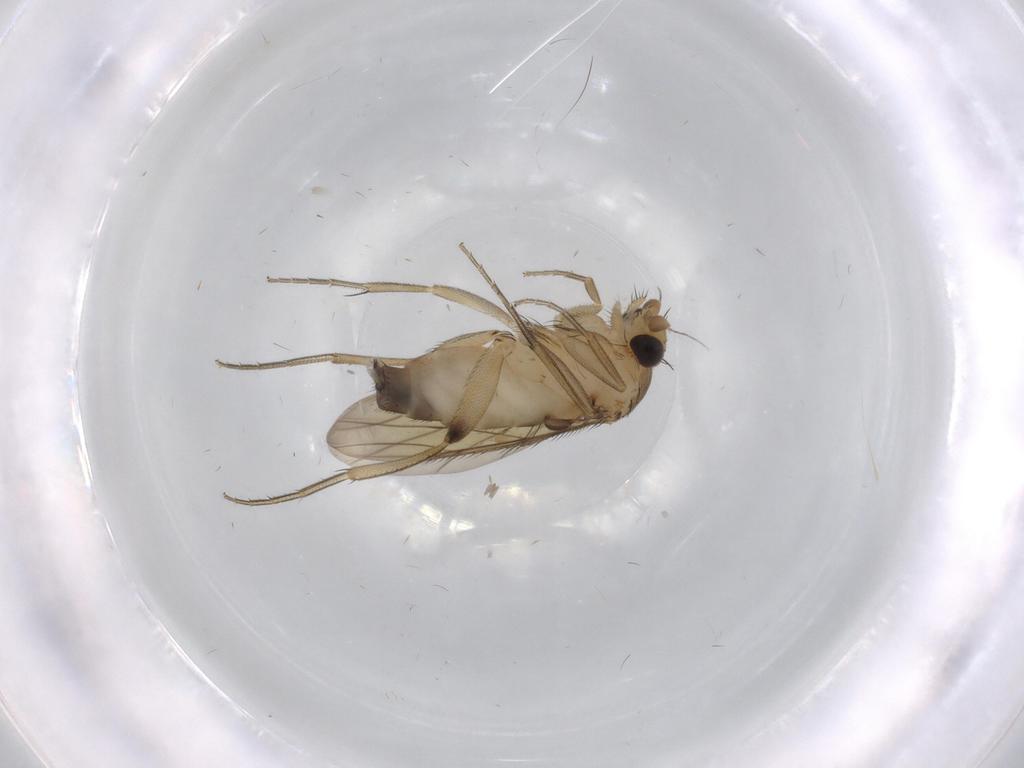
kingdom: Animalia
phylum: Arthropoda
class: Insecta
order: Diptera
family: Phoridae
